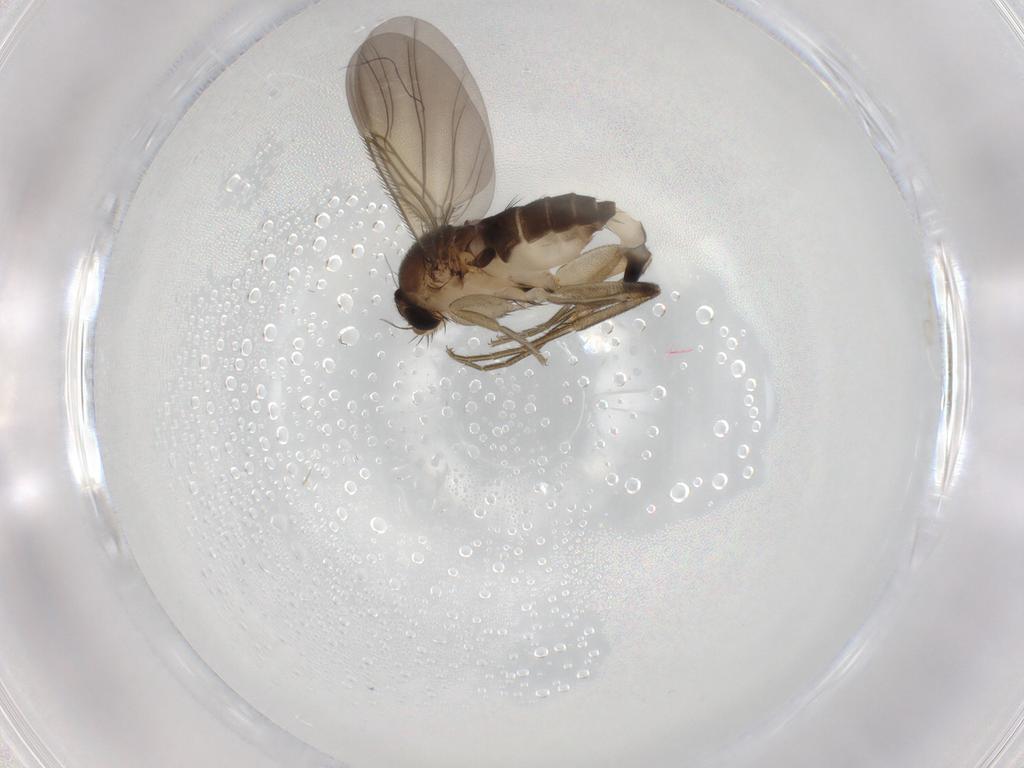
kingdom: Animalia
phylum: Arthropoda
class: Insecta
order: Diptera
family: Phoridae
